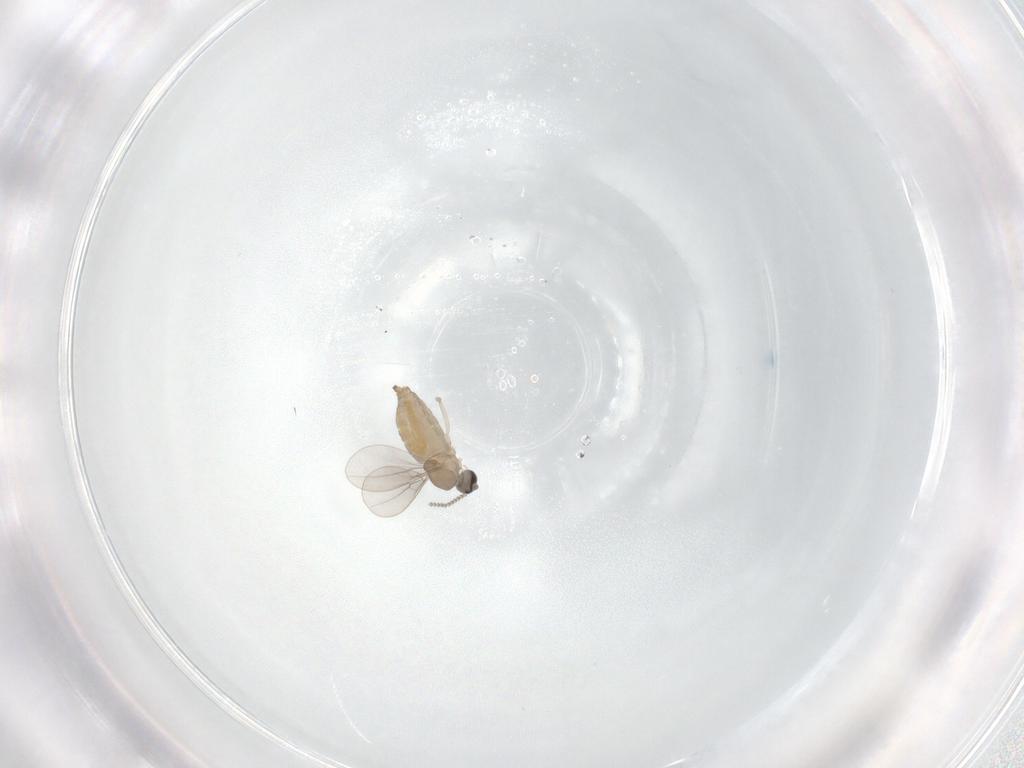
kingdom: Animalia
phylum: Arthropoda
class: Insecta
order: Diptera
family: Cecidomyiidae
